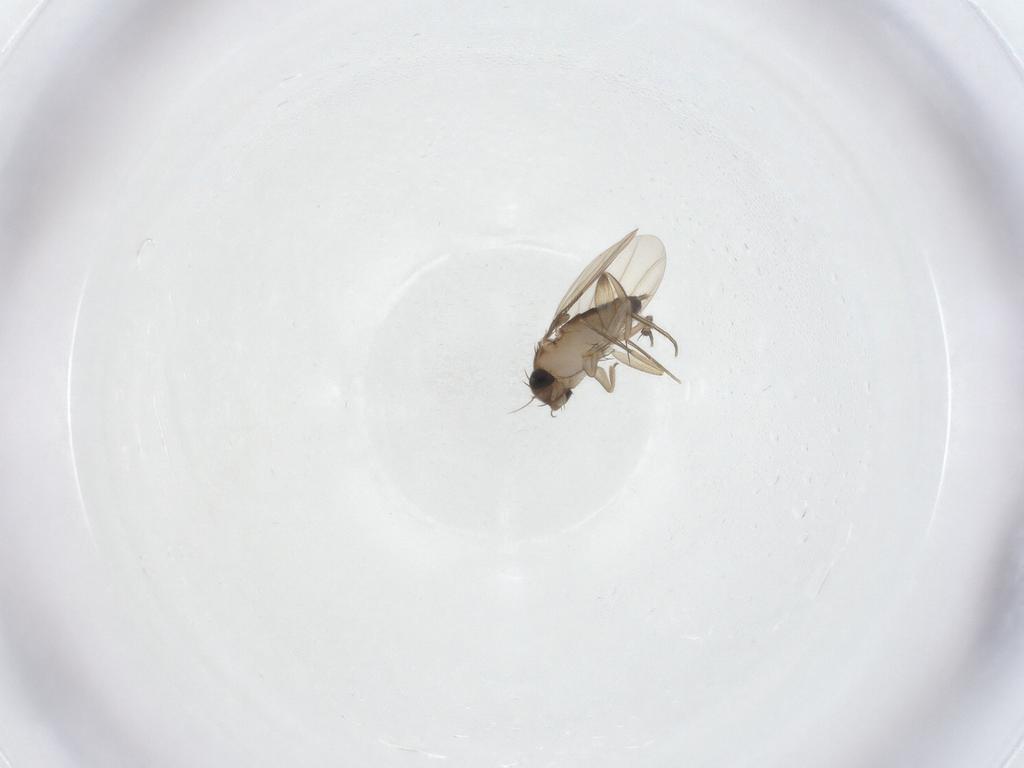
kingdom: Animalia
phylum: Arthropoda
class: Insecta
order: Diptera
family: Phoridae
